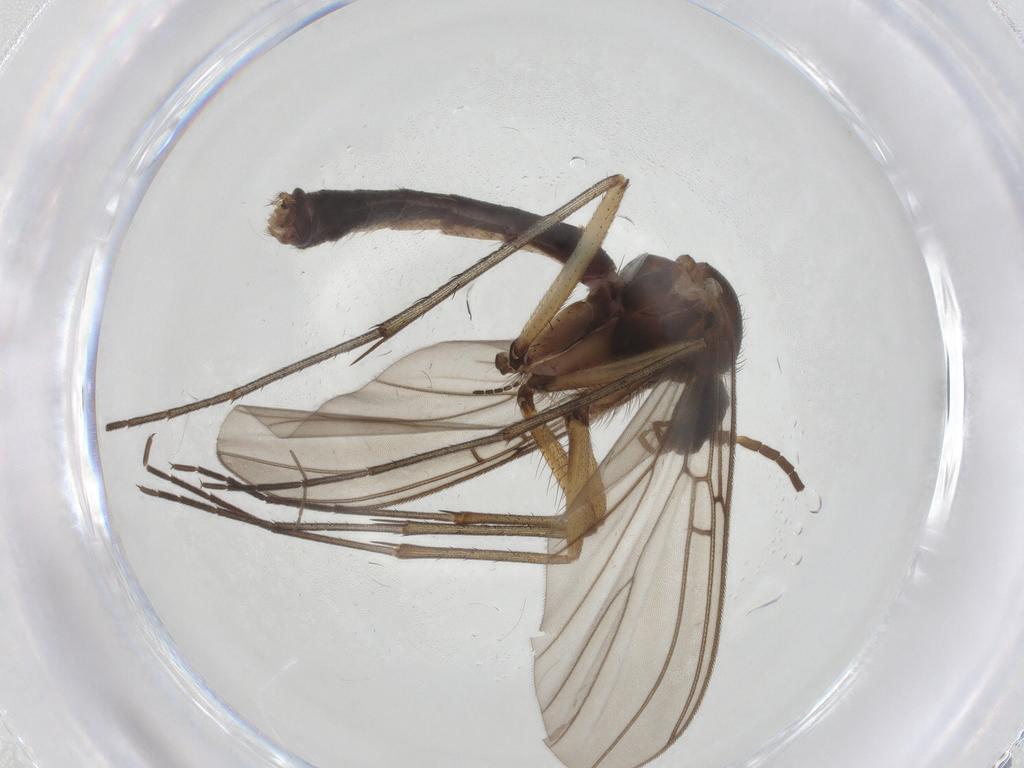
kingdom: Animalia
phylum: Arthropoda
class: Insecta
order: Diptera
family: Mycetophilidae
